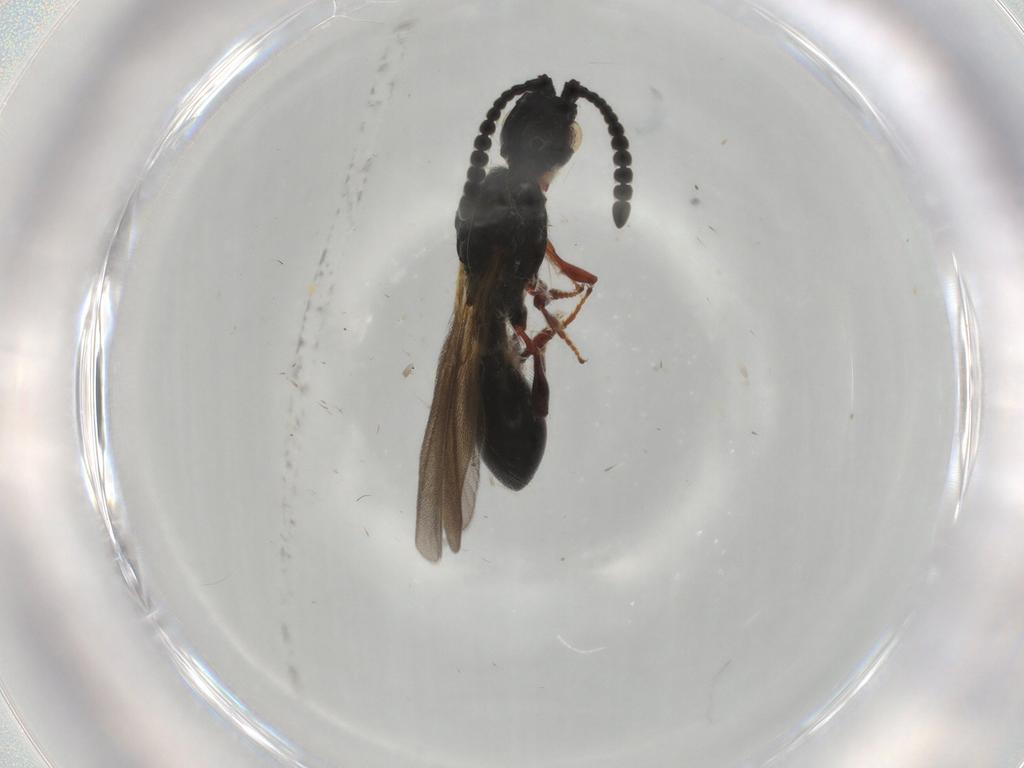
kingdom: Animalia
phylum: Arthropoda
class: Insecta
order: Hymenoptera
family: Diapriidae
